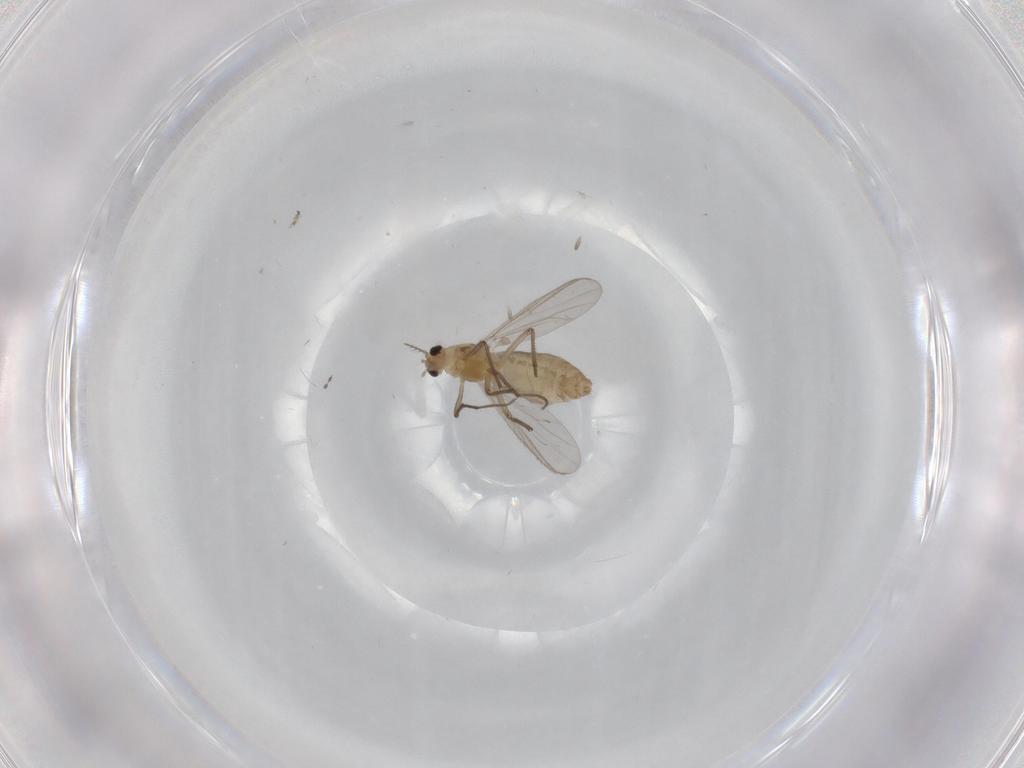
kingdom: Animalia
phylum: Arthropoda
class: Insecta
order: Diptera
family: Chironomidae
